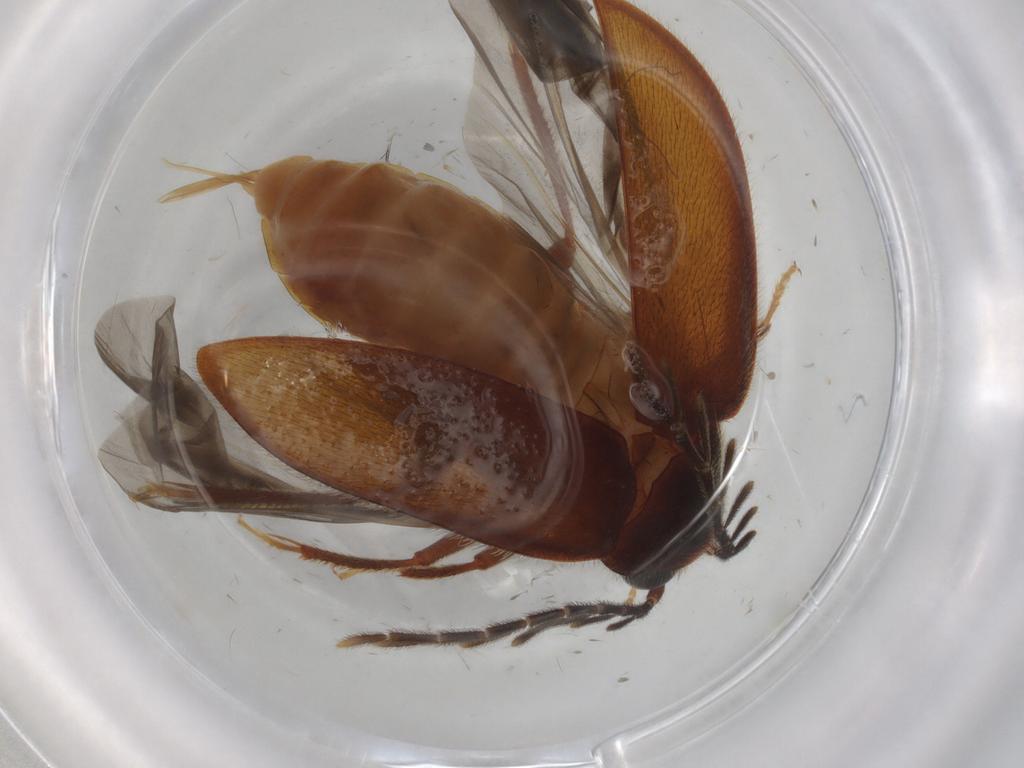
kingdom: Animalia
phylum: Arthropoda
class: Insecta
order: Coleoptera
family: Ptilodactylidae
